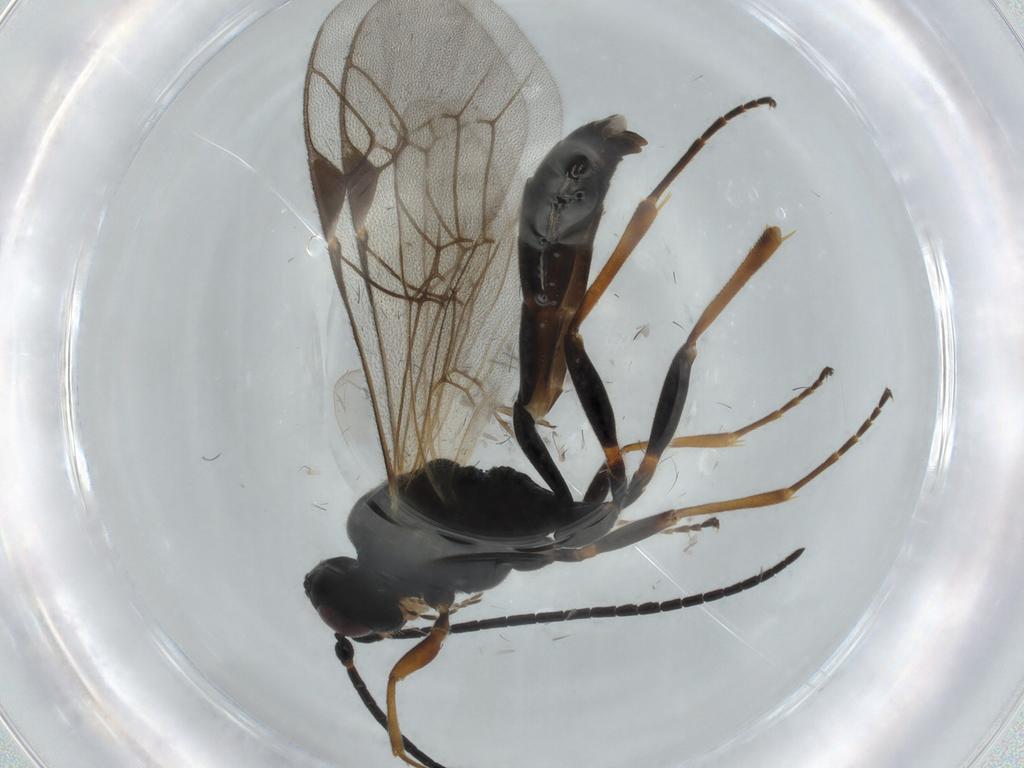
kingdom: Animalia
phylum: Arthropoda
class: Insecta
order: Hymenoptera
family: Ichneumonidae
